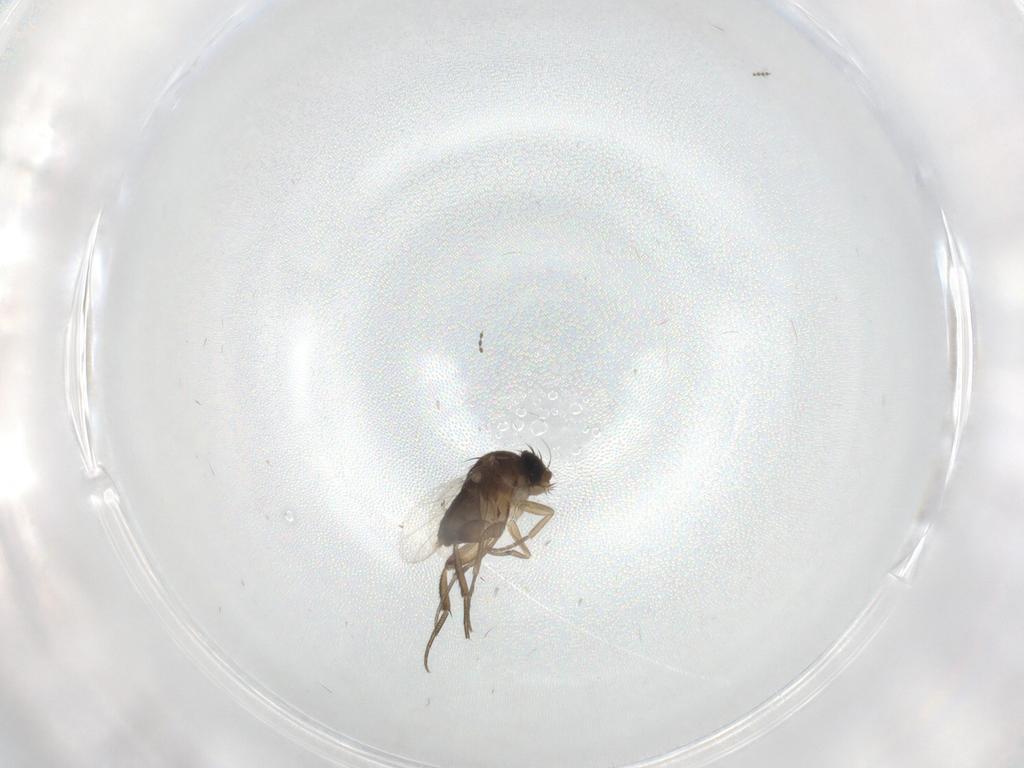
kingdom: Animalia
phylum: Arthropoda
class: Insecta
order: Diptera
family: Phoridae
